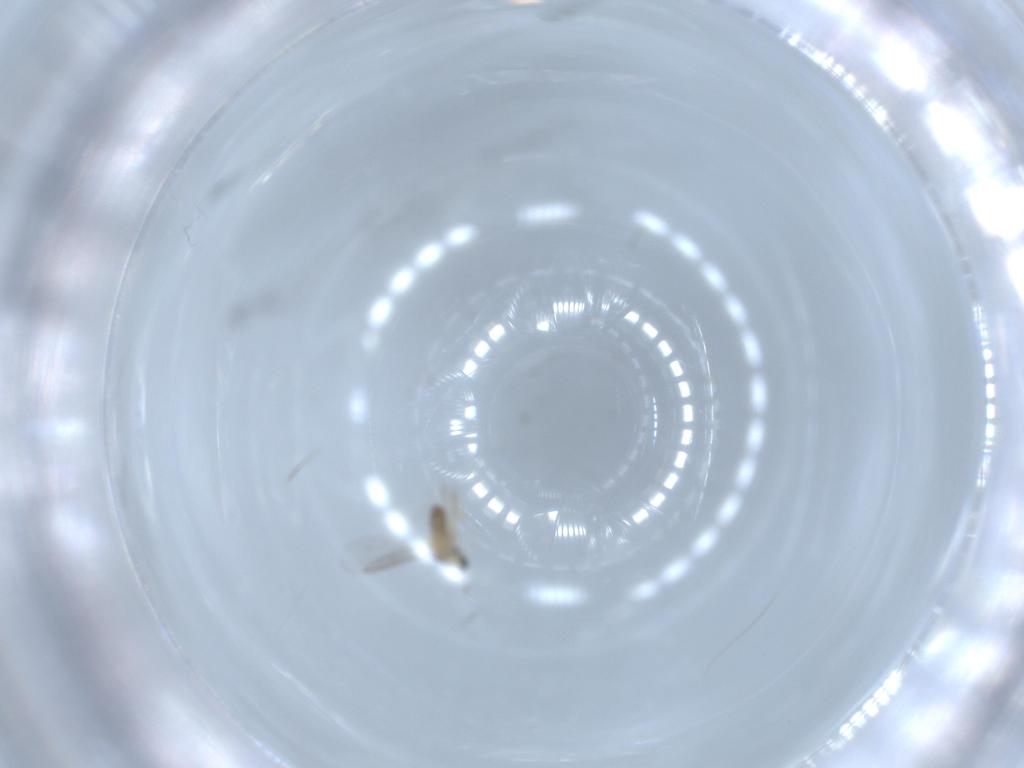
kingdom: Animalia
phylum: Arthropoda
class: Insecta
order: Diptera
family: Cecidomyiidae
